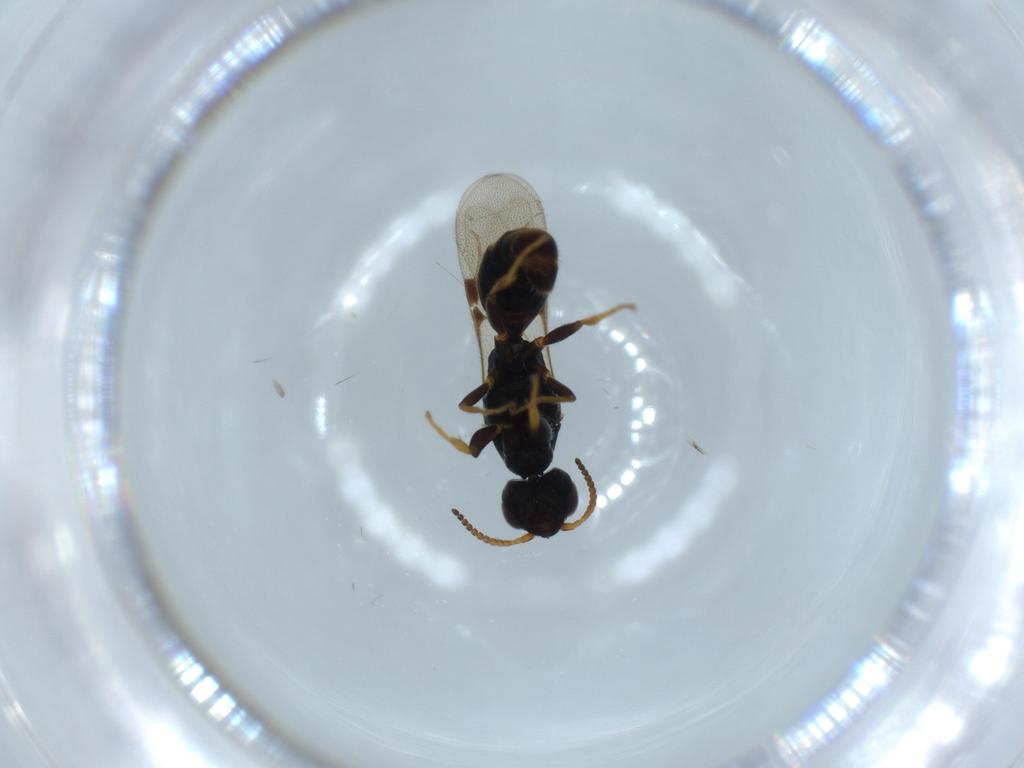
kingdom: Animalia
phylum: Arthropoda
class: Insecta
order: Hymenoptera
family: Bethylidae
